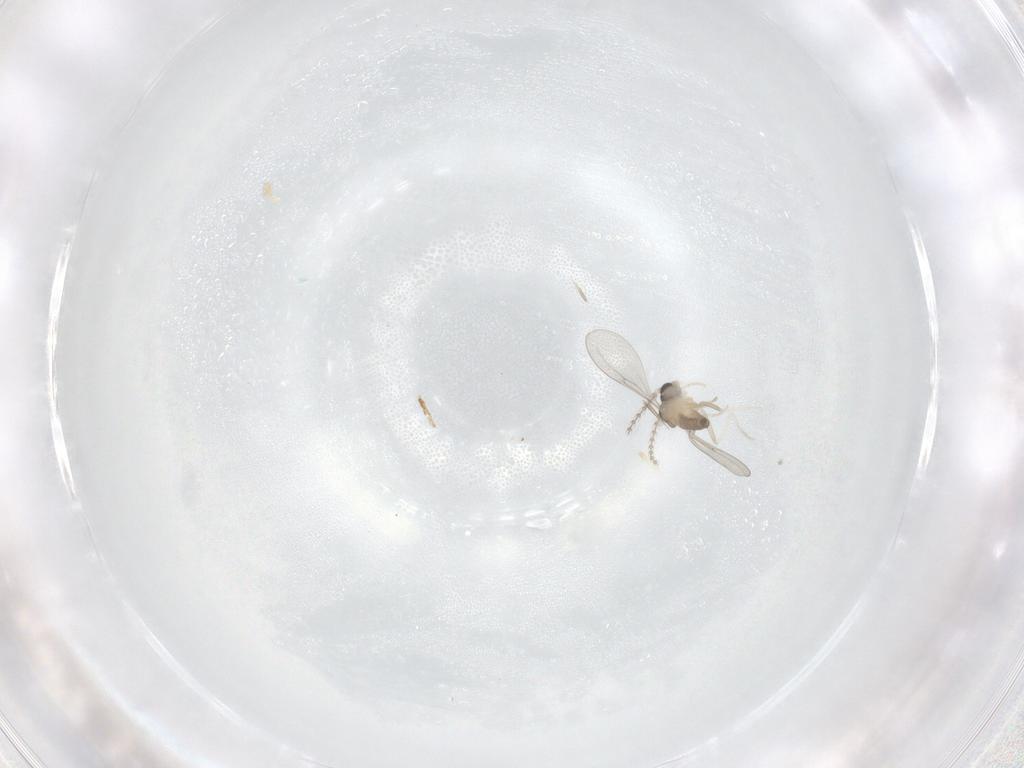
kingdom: Animalia
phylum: Arthropoda
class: Insecta
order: Diptera
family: Cecidomyiidae
